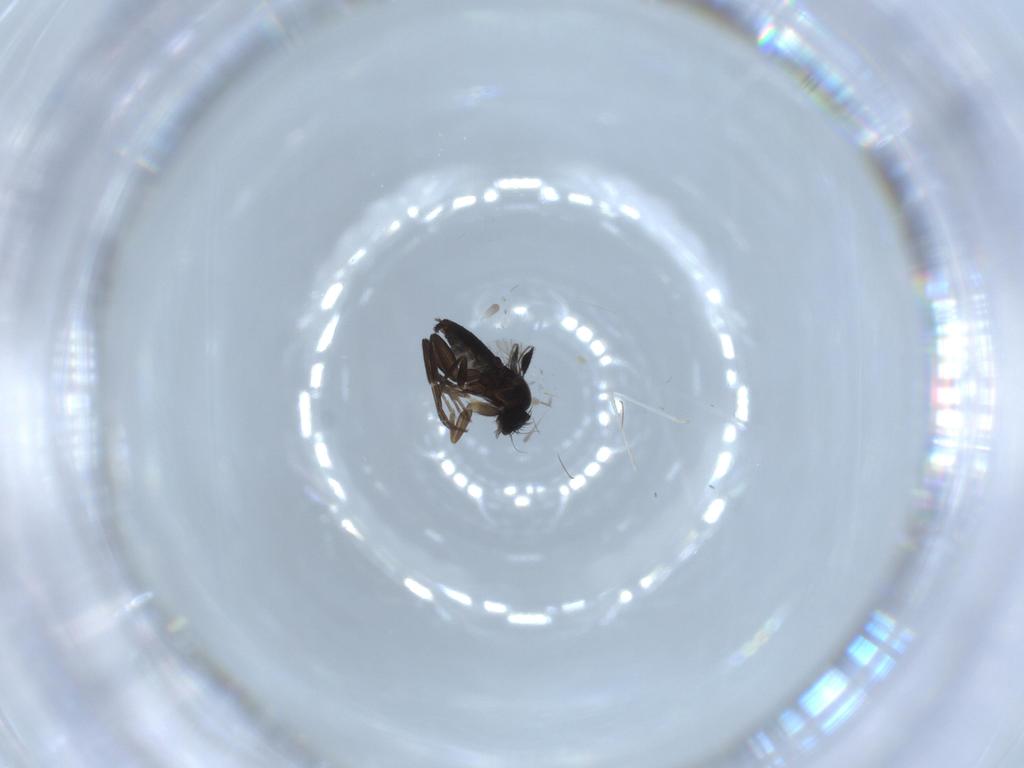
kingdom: Animalia
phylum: Arthropoda
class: Insecta
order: Diptera
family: Phoridae
